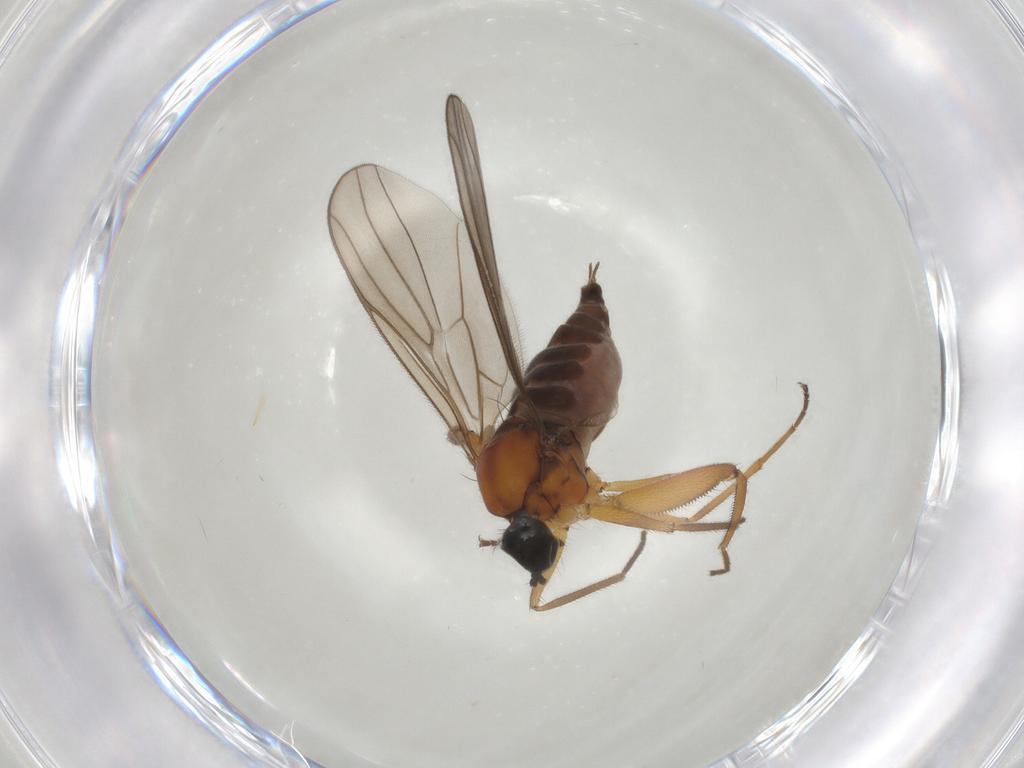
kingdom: Animalia
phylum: Arthropoda
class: Insecta
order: Diptera
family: Hybotidae
